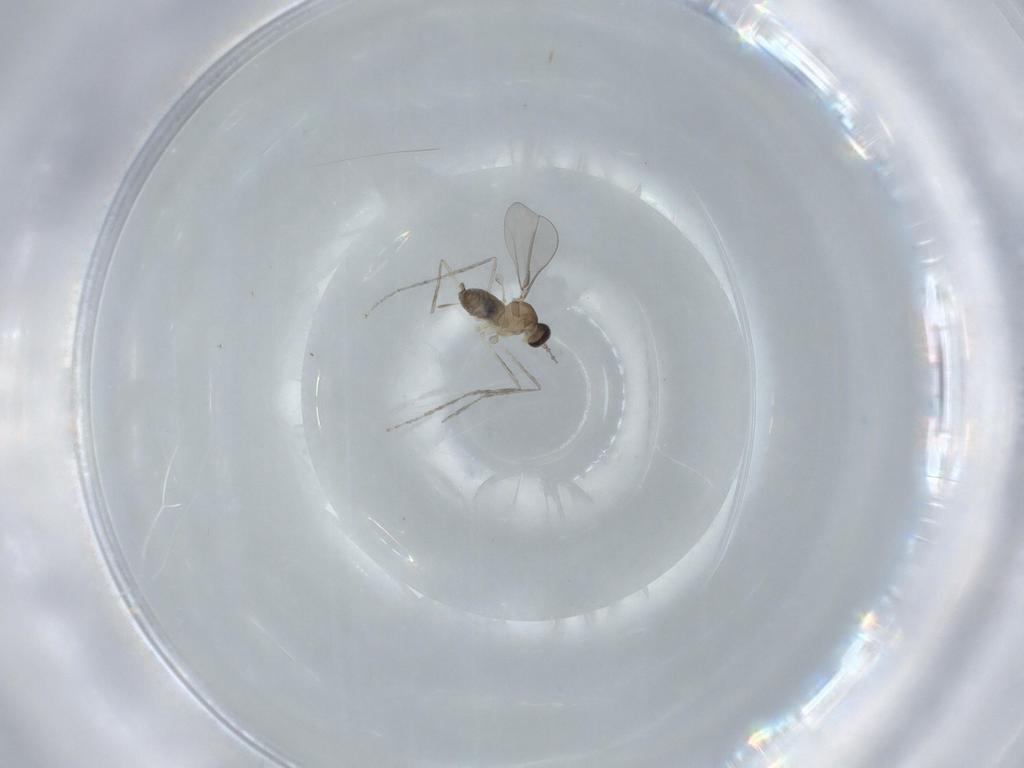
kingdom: Animalia
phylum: Arthropoda
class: Insecta
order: Diptera
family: Cecidomyiidae
